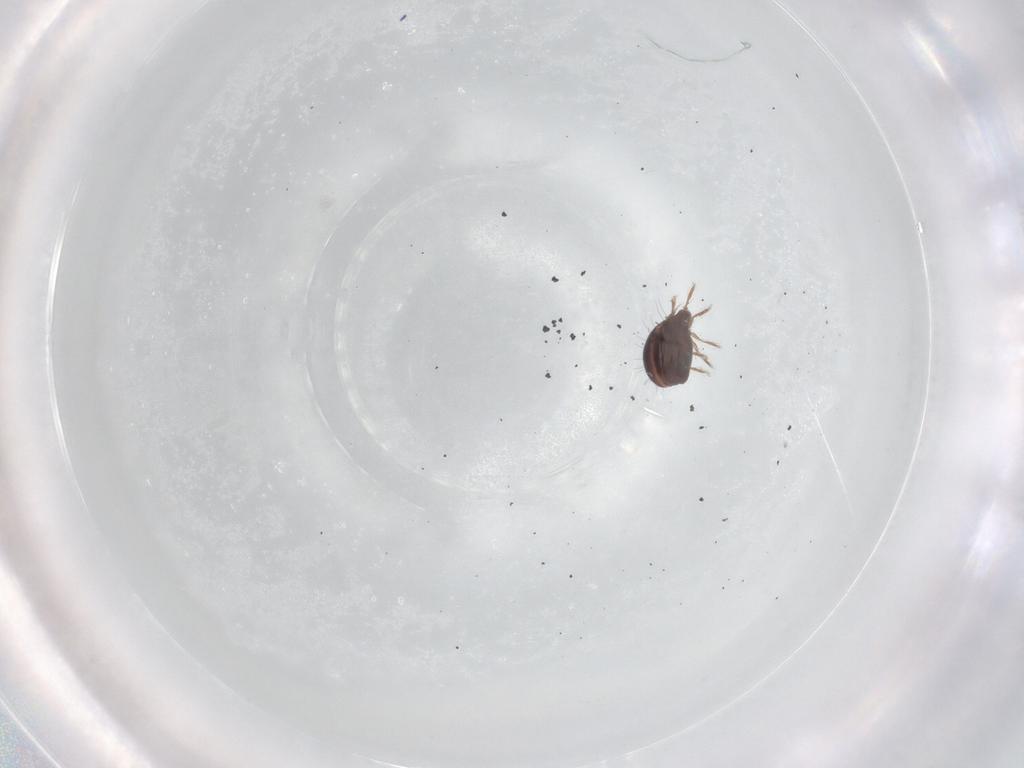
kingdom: Animalia
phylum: Arthropoda
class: Arachnida
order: Sarcoptiformes
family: Ceratozetidae
